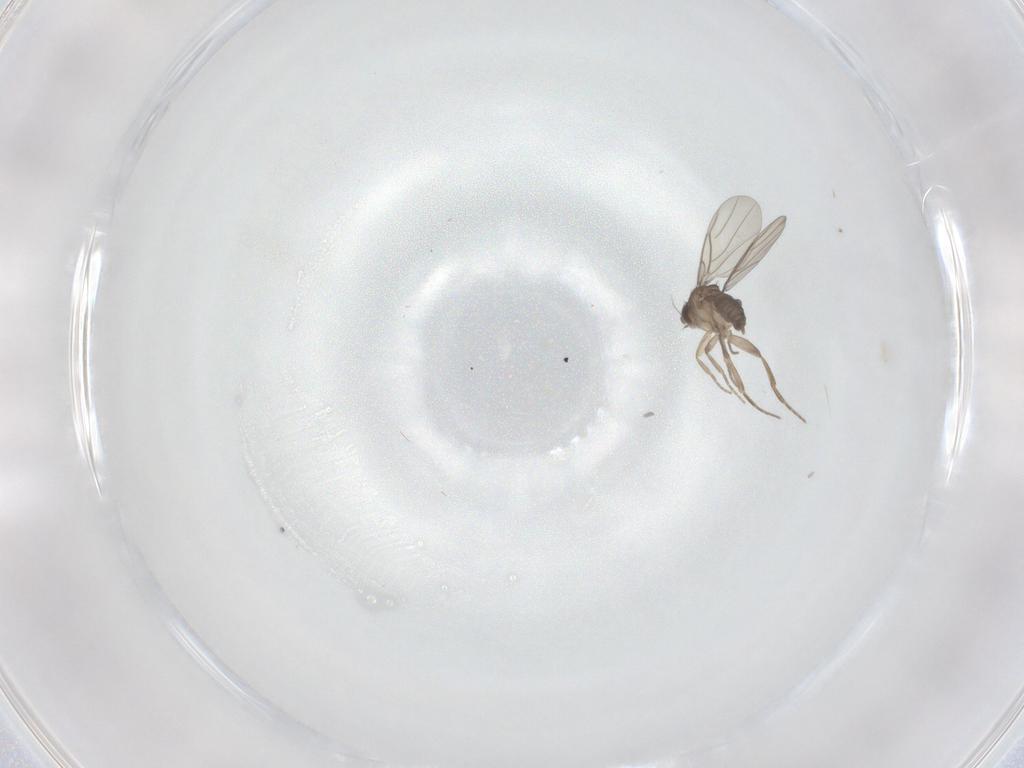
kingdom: Animalia
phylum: Arthropoda
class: Insecta
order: Diptera
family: Phoridae
